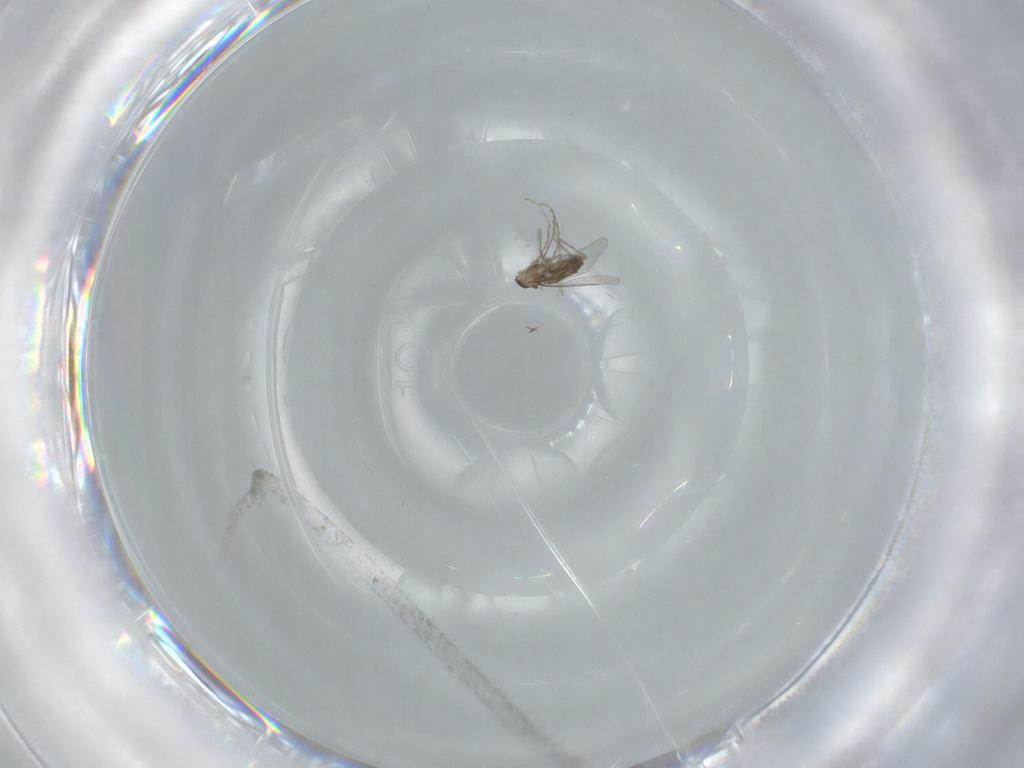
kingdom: Animalia
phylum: Arthropoda
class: Insecta
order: Diptera
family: Cecidomyiidae
